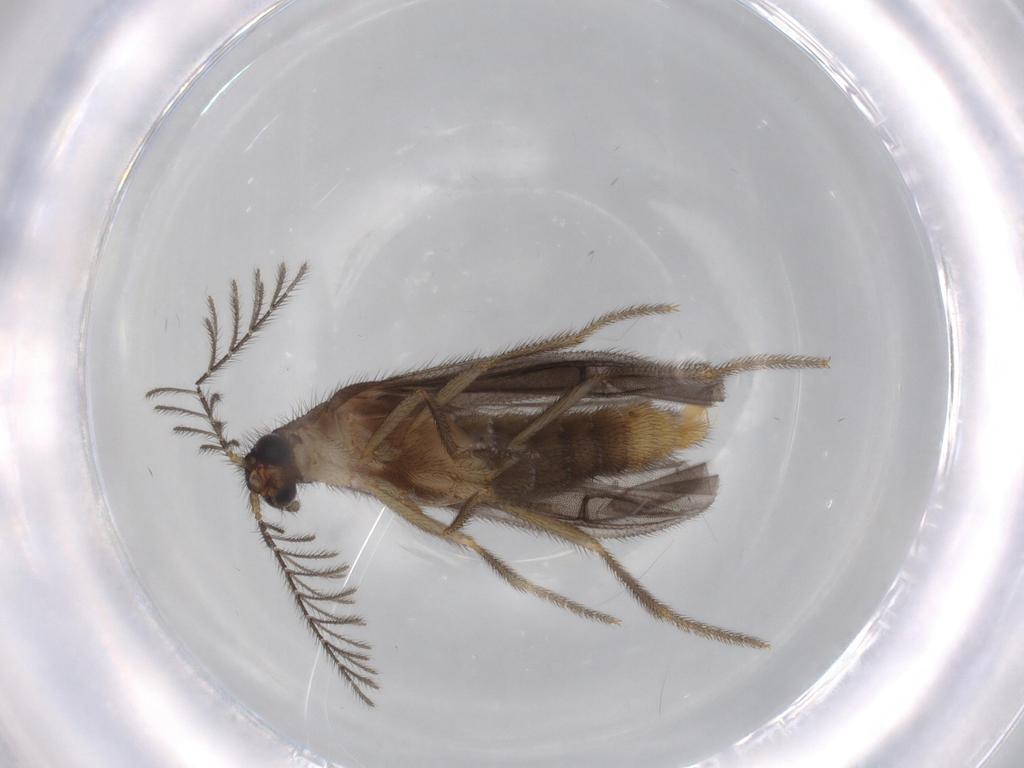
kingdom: Animalia
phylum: Arthropoda
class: Insecta
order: Coleoptera
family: Phengodidae
